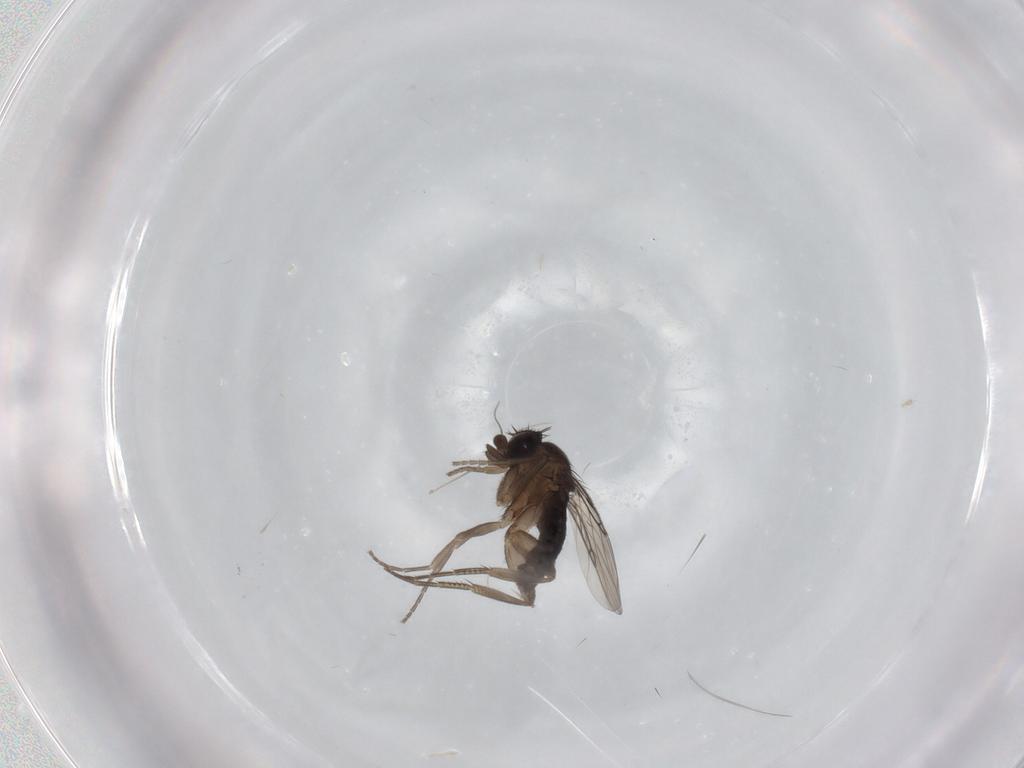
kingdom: Animalia
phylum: Arthropoda
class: Insecta
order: Diptera
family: Phoridae
